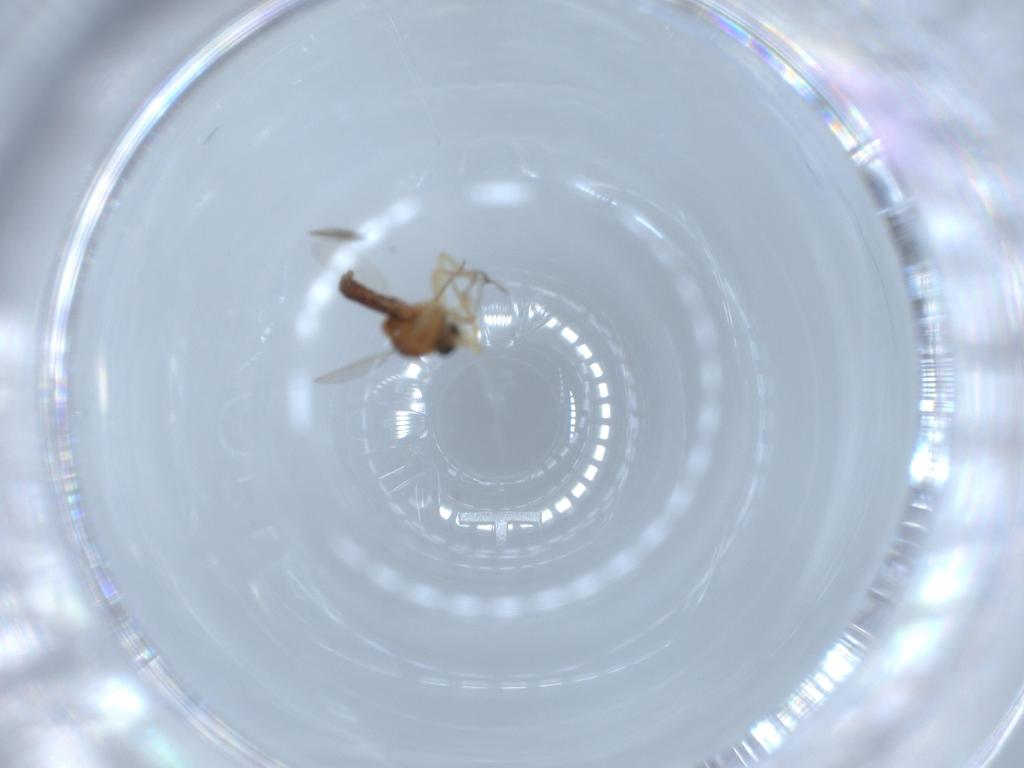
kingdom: Animalia
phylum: Arthropoda
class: Insecta
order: Diptera
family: Ceratopogonidae
